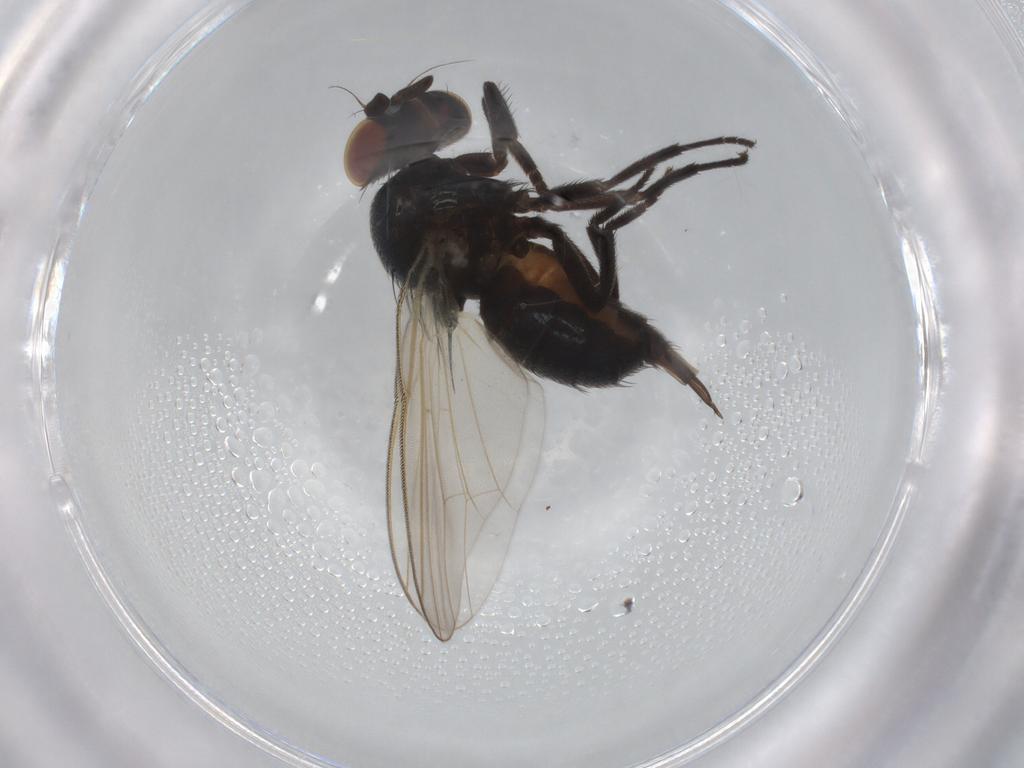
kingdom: Animalia
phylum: Arthropoda
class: Insecta
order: Diptera
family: Lonchaeidae
